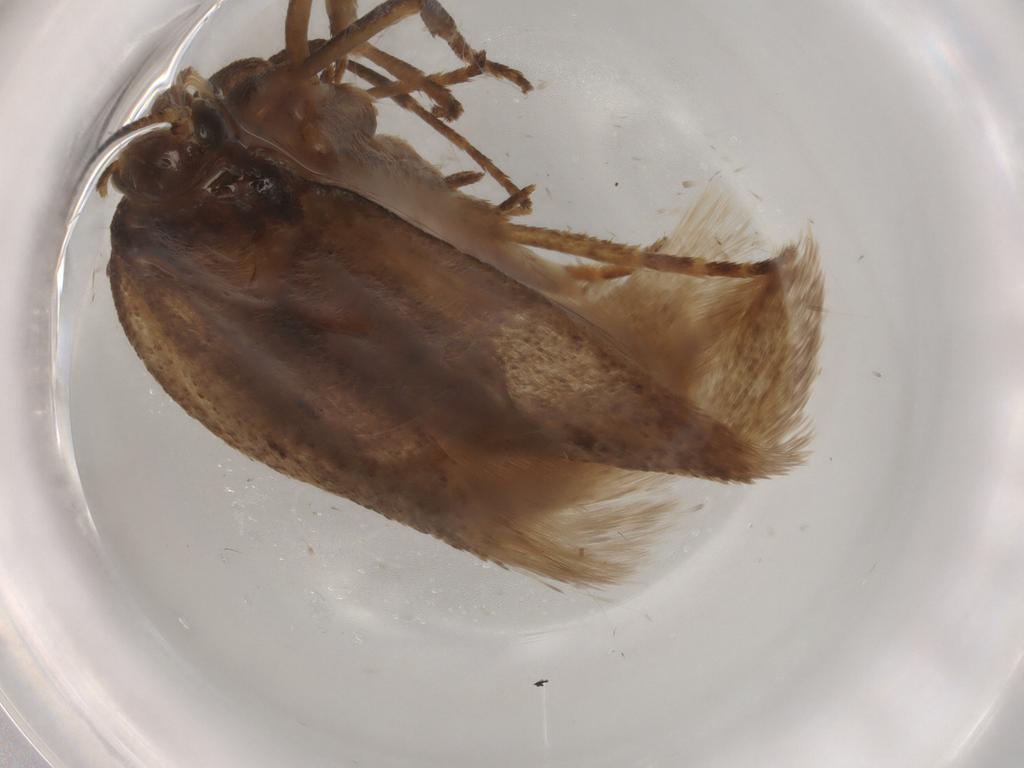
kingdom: Animalia
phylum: Arthropoda
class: Insecta
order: Lepidoptera
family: Erebidae
